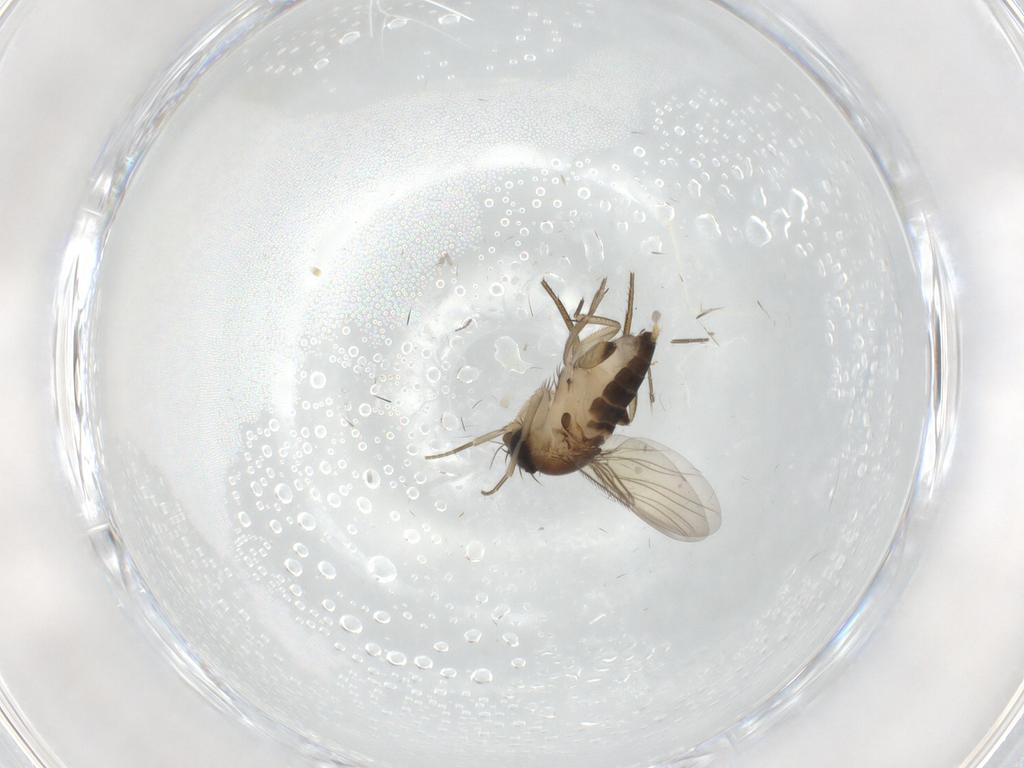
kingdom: Animalia
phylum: Arthropoda
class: Insecta
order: Diptera
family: Phoridae
